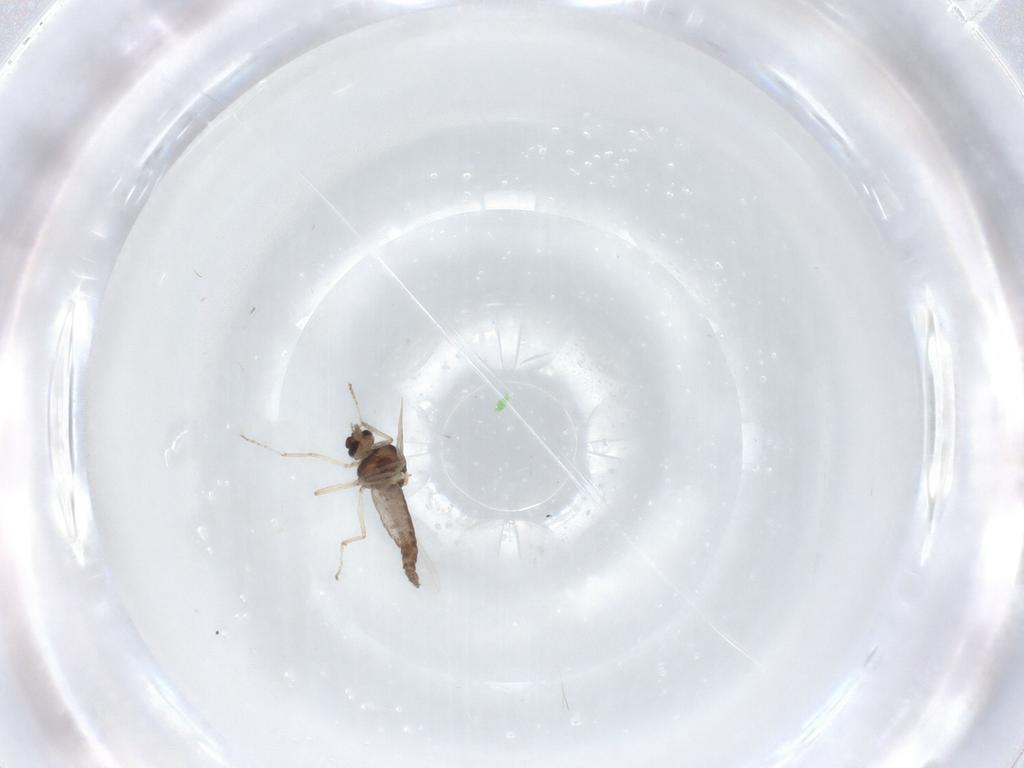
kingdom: Animalia
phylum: Arthropoda
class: Insecta
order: Diptera
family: Ceratopogonidae
